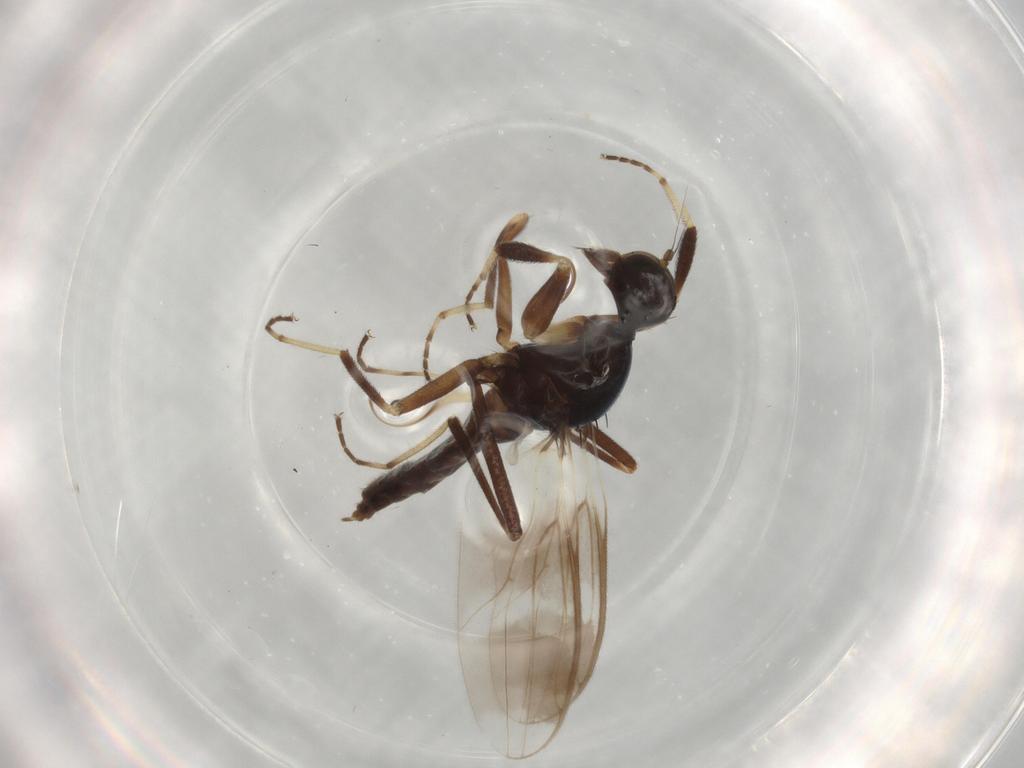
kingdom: Animalia
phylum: Arthropoda
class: Insecta
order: Diptera
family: Hybotidae
